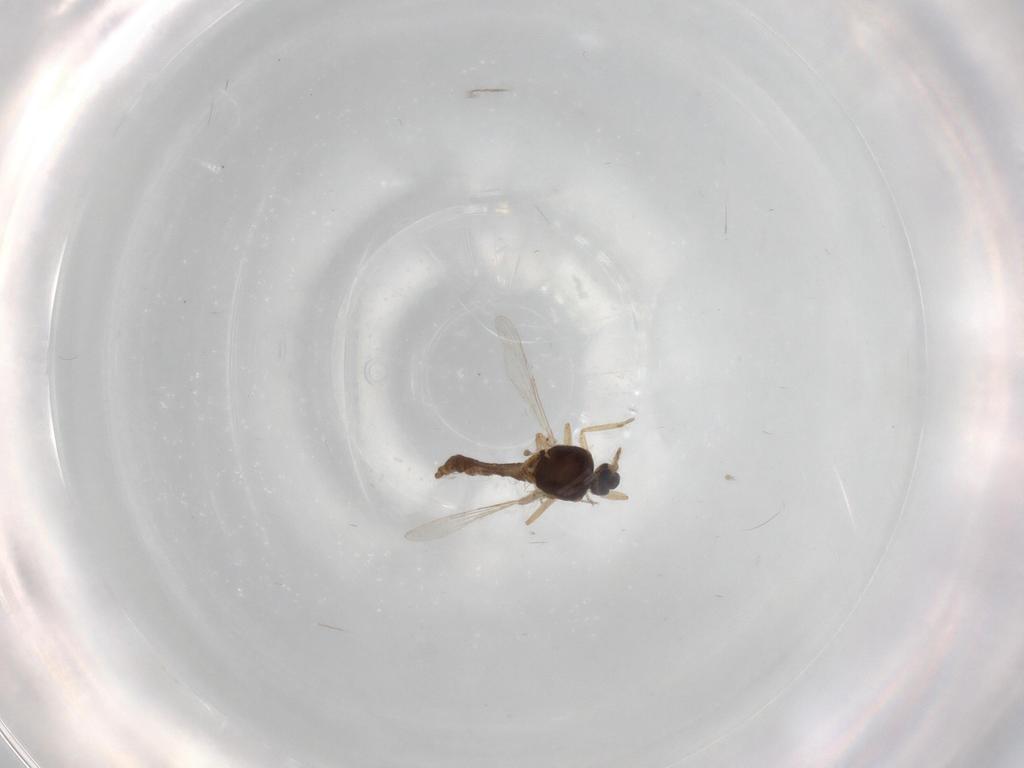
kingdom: Animalia
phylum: Arthropoda
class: Insecta
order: Diptera
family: Ceratopogonidae
